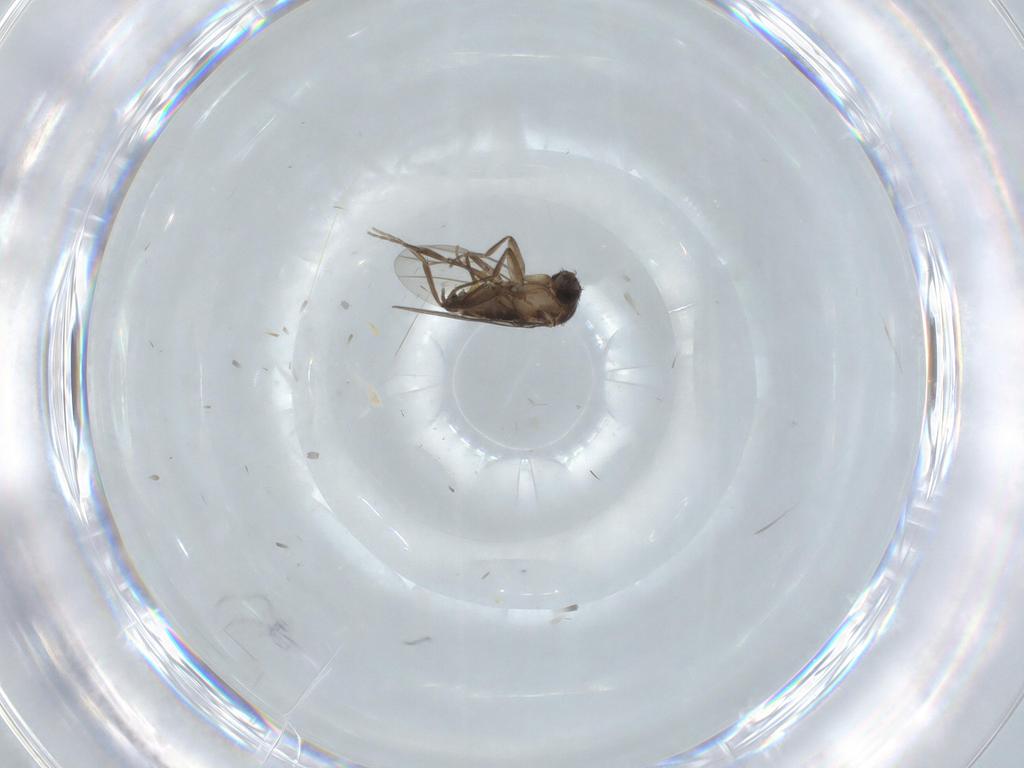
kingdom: Animalia
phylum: Arthropoda
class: Insecta
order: Diptera
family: Phoridae
